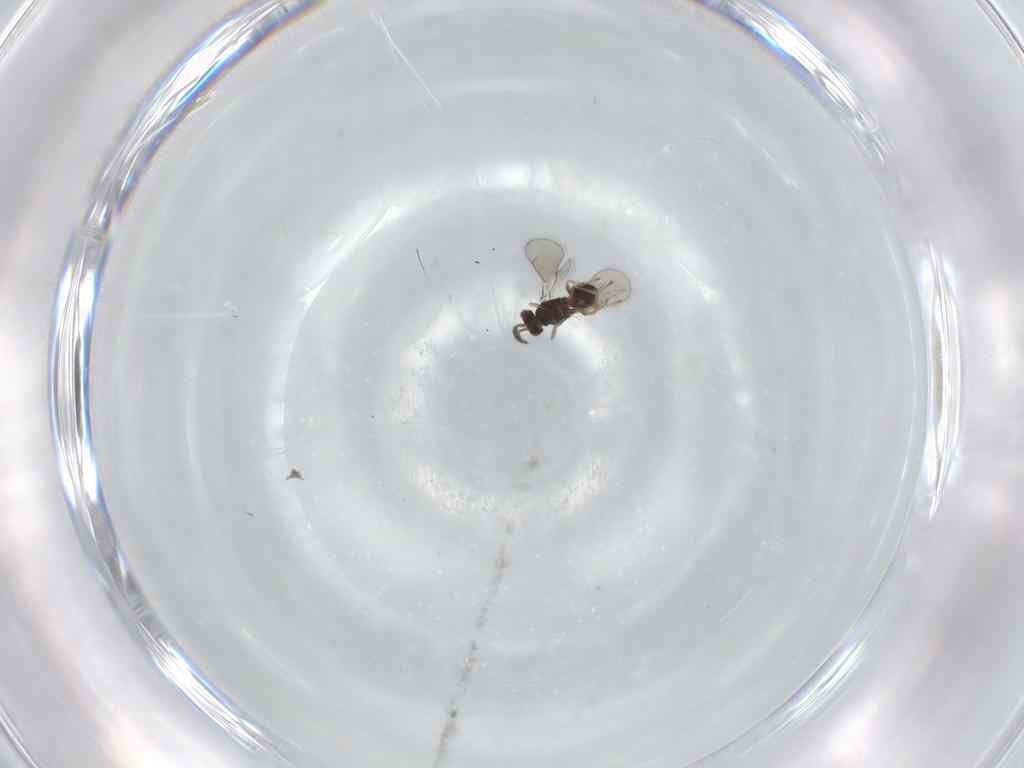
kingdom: Animalia
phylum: Arthropoda
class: Insecta
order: Hymenoptera
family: Eulophidae
